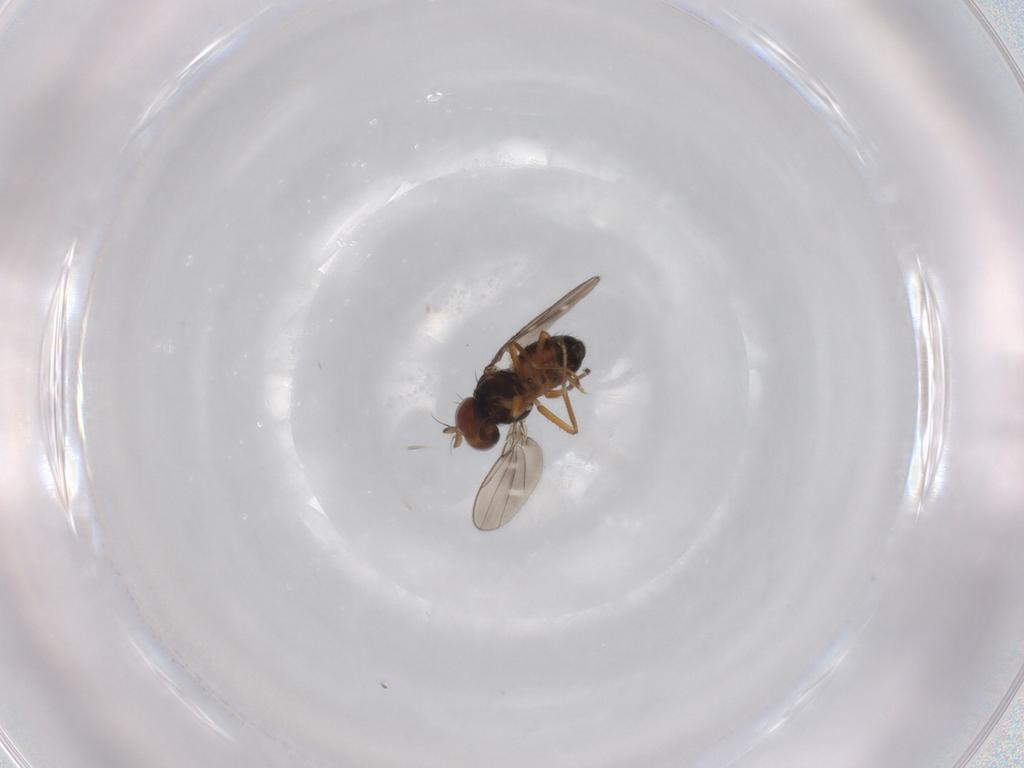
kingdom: Animalia
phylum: Arthropoda
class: Insecta
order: Diptera
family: Ephydridae
